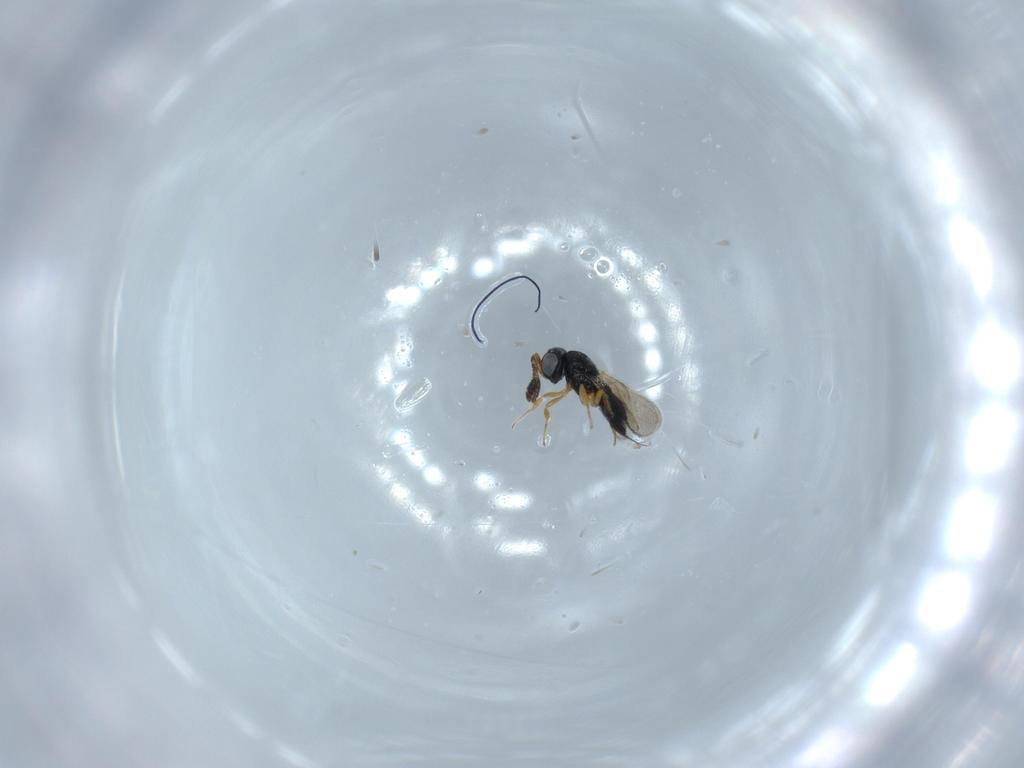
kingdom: Animalia
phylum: Arthropoda
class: Insecta
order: Hymenoptera
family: Scelionidae
